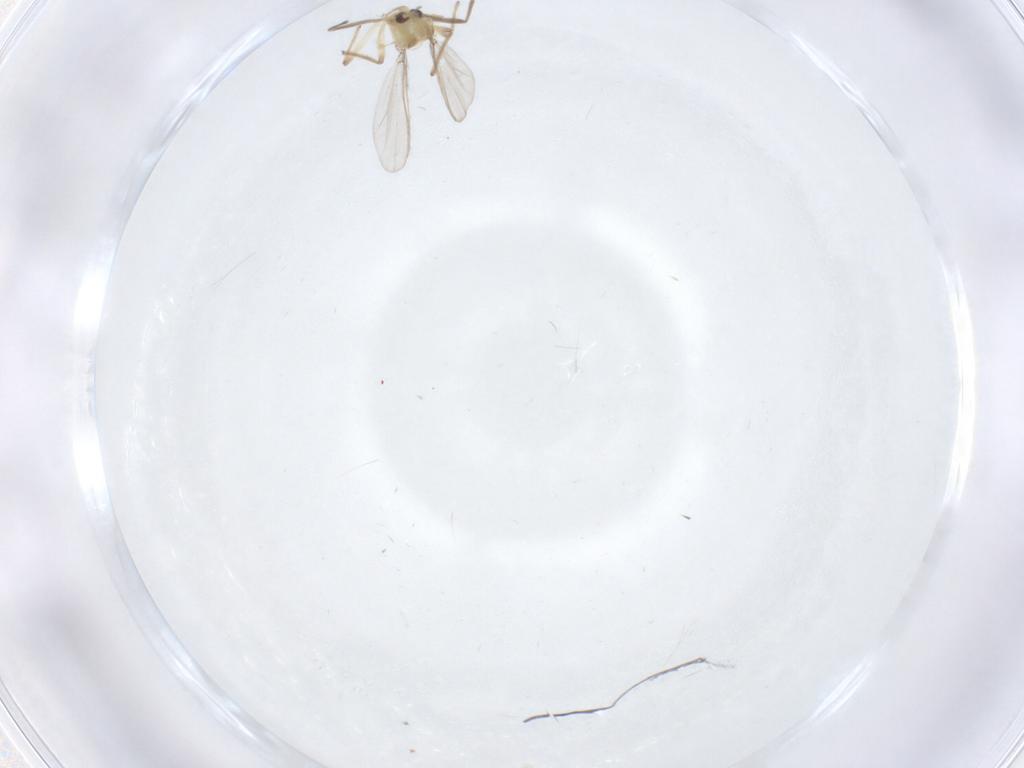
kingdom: Animalia
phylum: Arthropoda
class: Insecta
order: Diptera
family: Chironomidae
